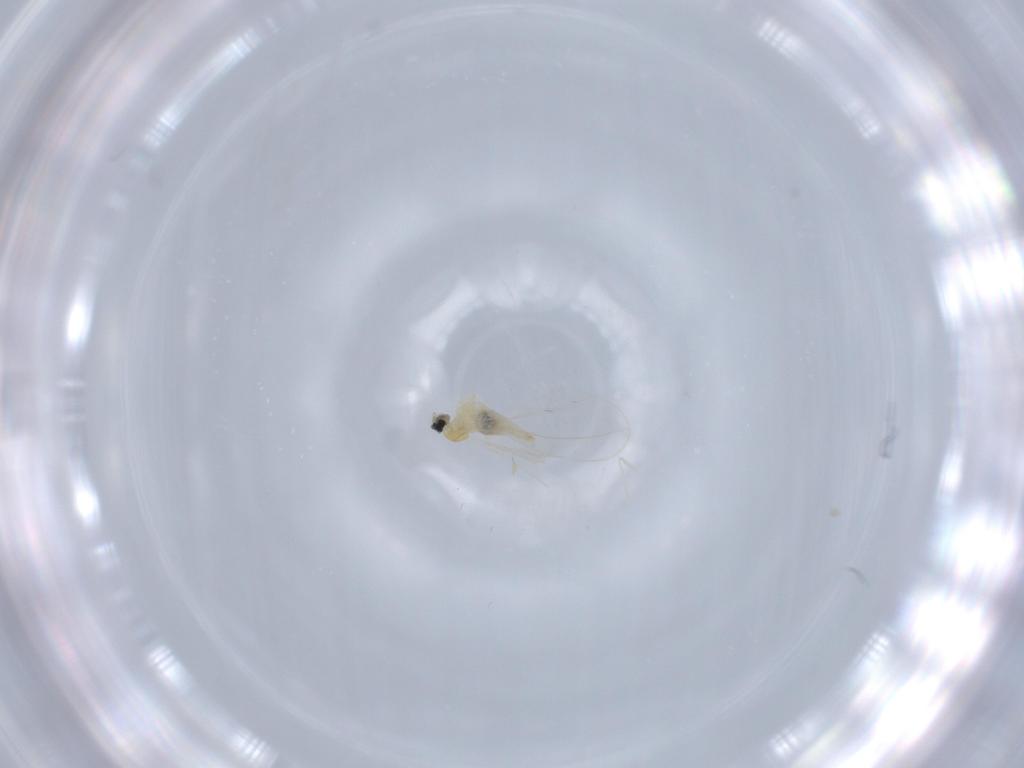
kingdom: Animalia
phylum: Arthropoda
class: Insecta
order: Diptera
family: Cecidomyiidae
